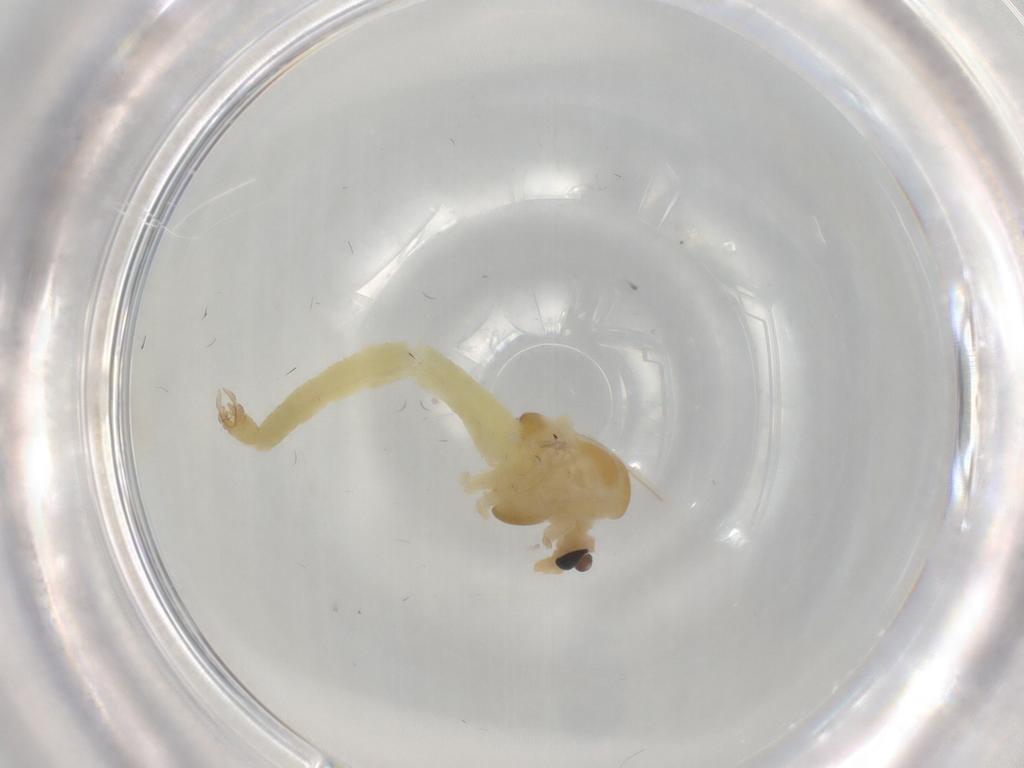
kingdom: Animalia
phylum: Arthropoda
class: Insecta
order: Diptera
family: Chironomidae
